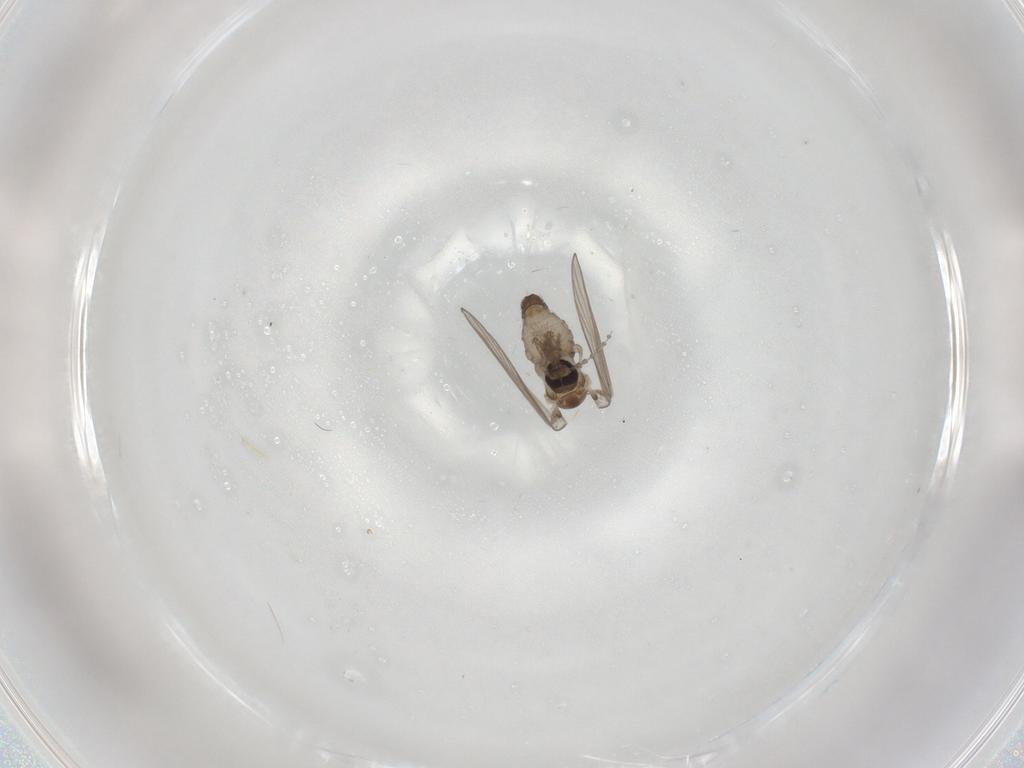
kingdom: Animalia
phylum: Arthropoda
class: Insecta
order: Diptera
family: Psychodidae
